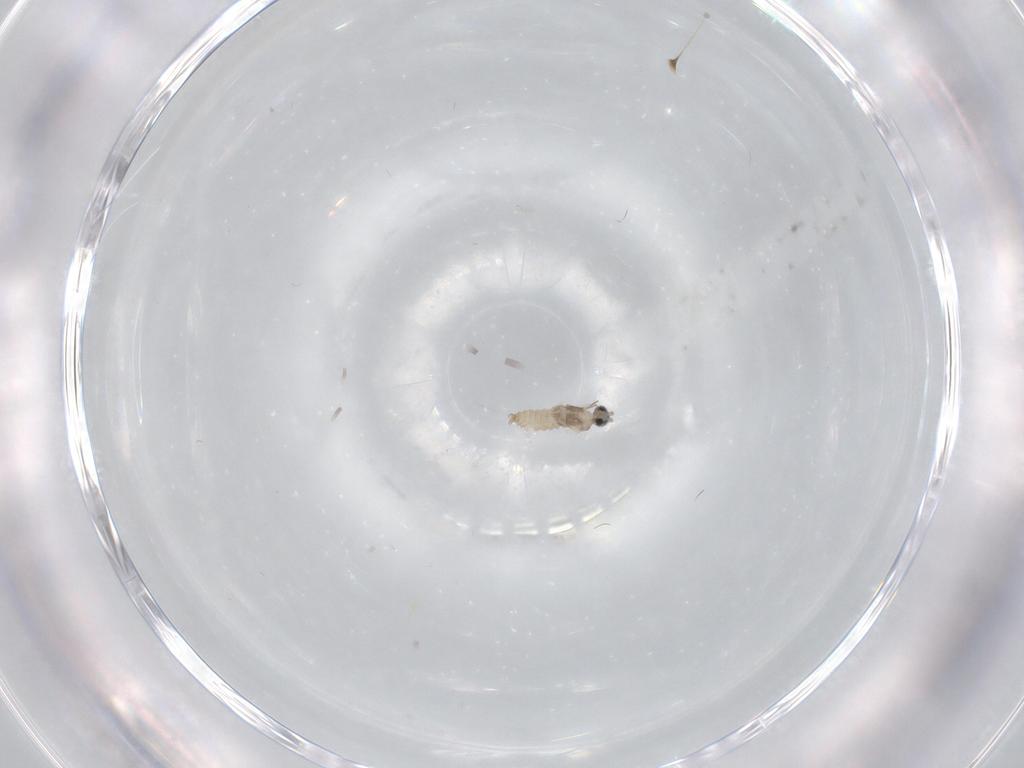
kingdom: Animalia
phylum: Arthropoda
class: Insecta
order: Diptera
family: Cecidomyiidae
